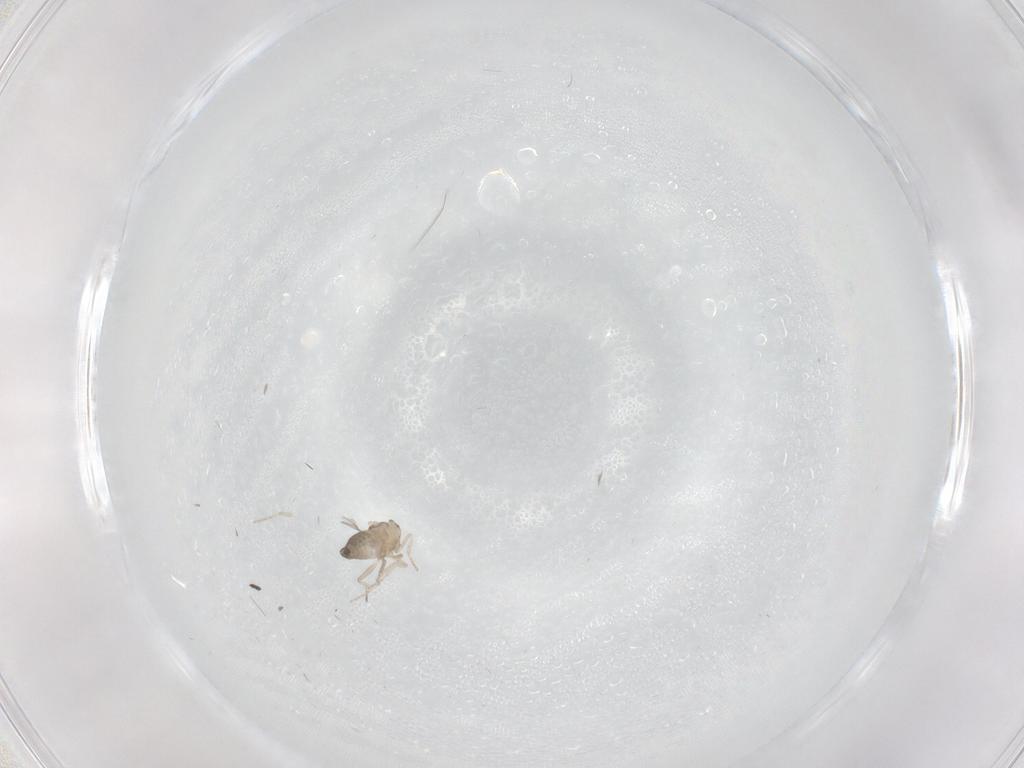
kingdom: Animalia
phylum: Arthropoda
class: Insecta
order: Diptera
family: Cecidomyiidae
